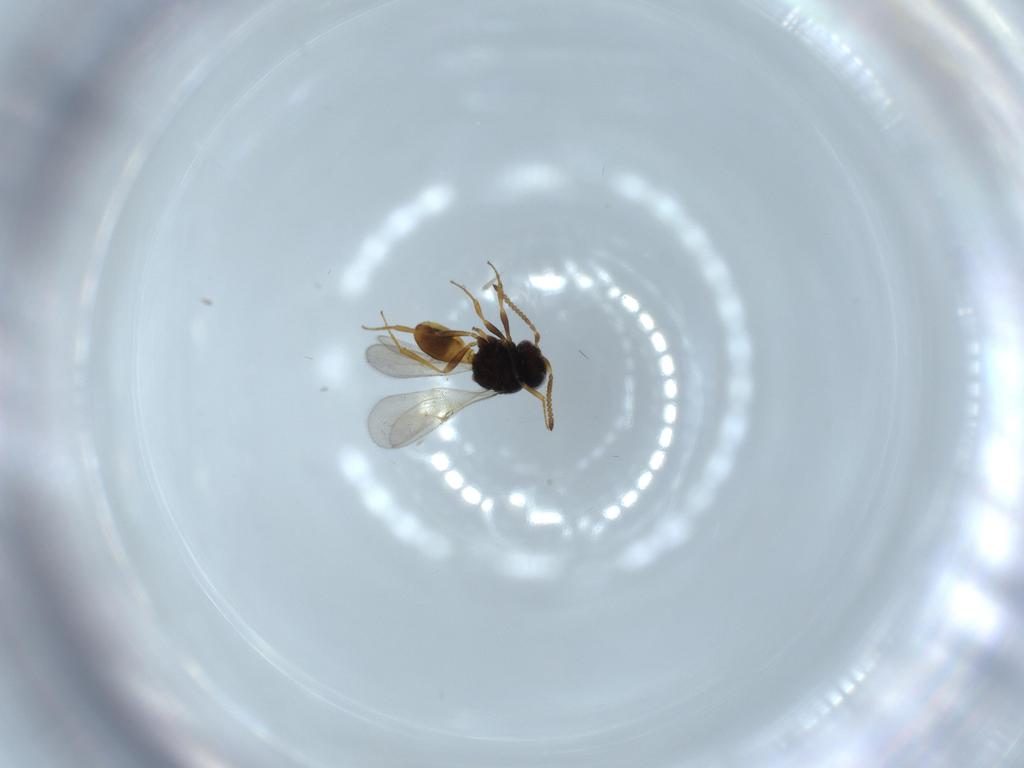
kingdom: Animalia
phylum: Arthropoda
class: Insecta
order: Hymenoptera
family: Scelionidae
